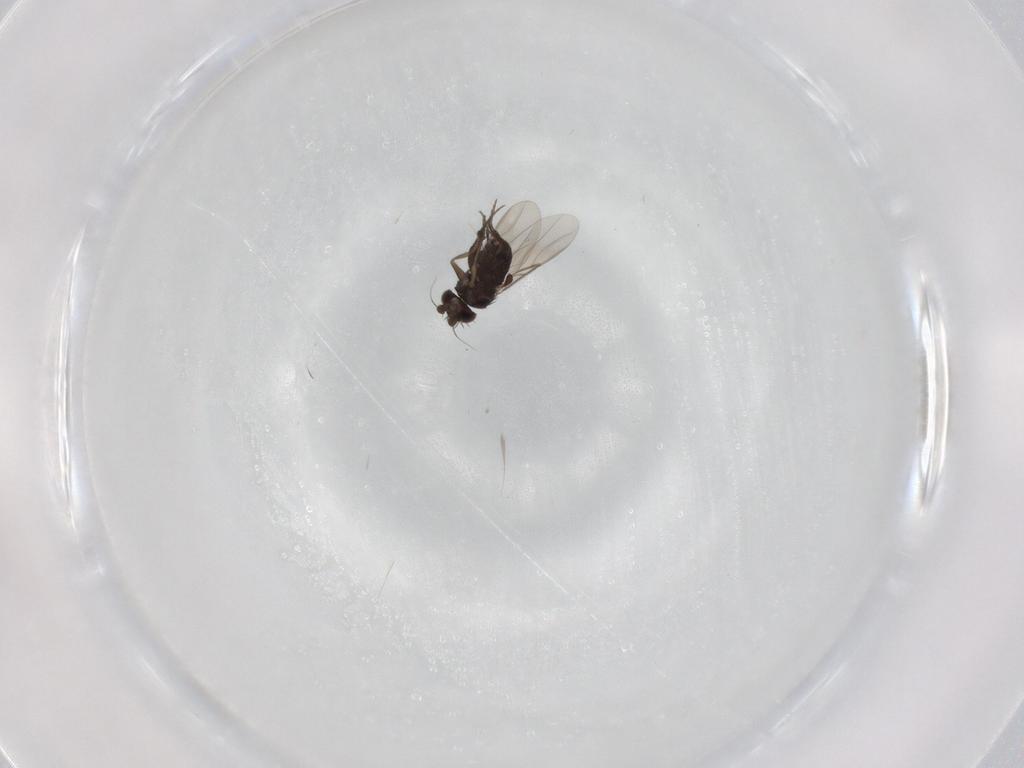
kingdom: Animalia
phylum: Arthropoda
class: Insecta
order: Diptera
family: Phoridae
